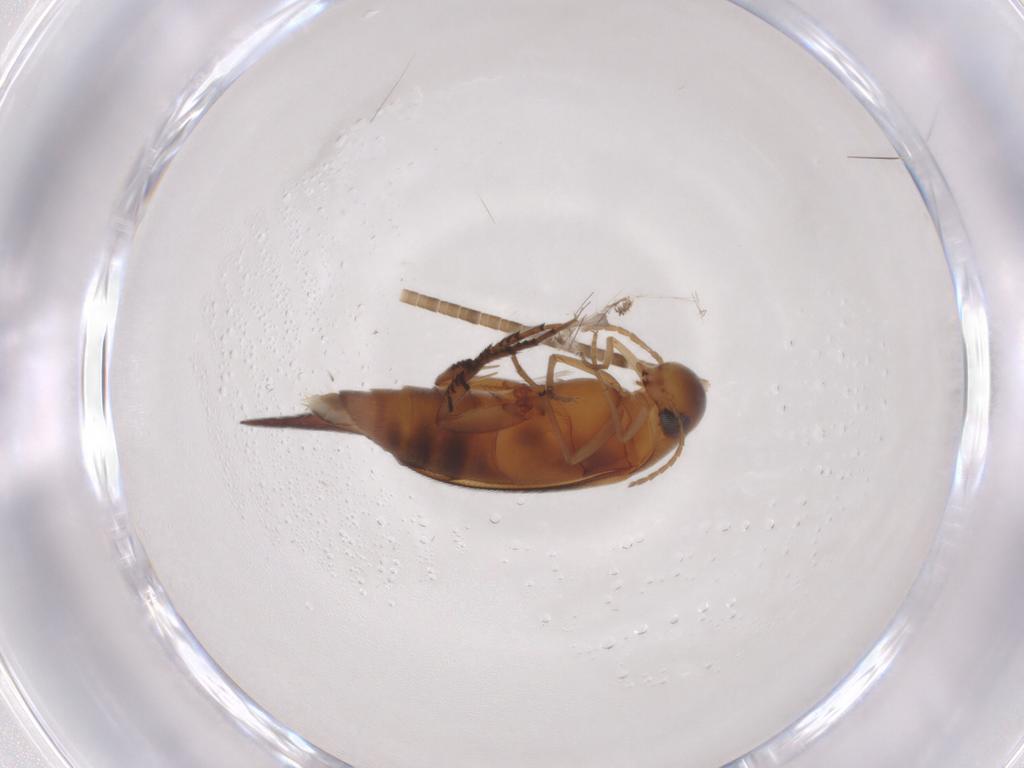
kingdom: Animalia
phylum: Arthropoda
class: Insecta
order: Coleoptera
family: Mordellidae
